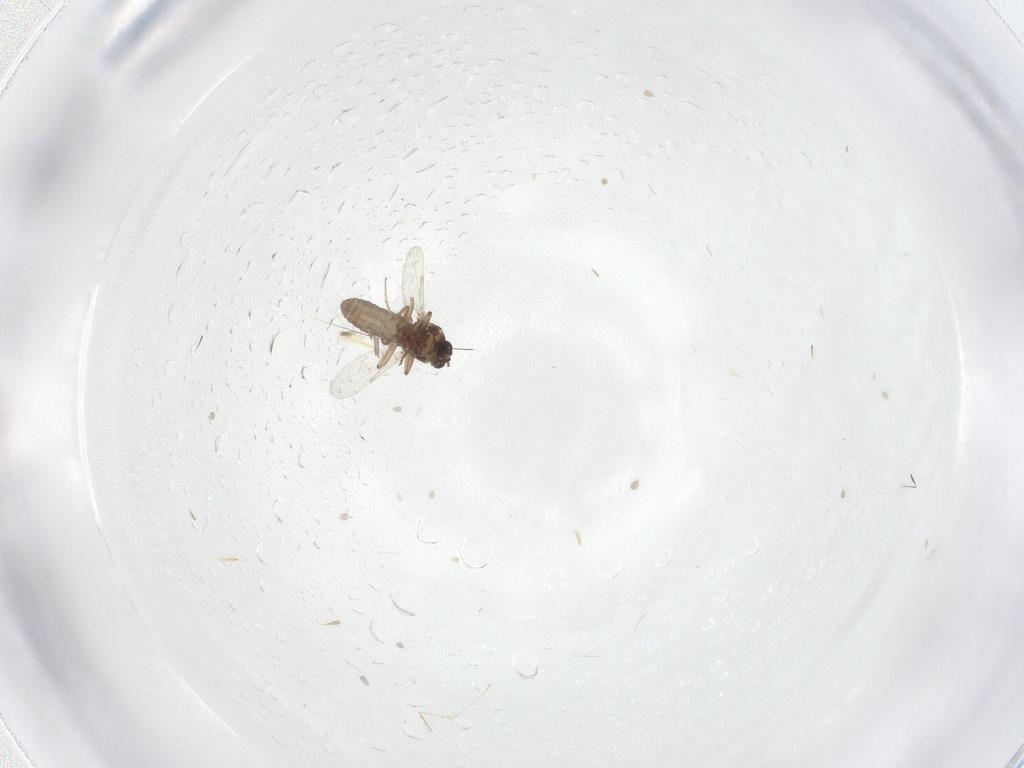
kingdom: Animalia
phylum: Arthropoda
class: Insecta
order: Diptera
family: Ceratopogonidae
